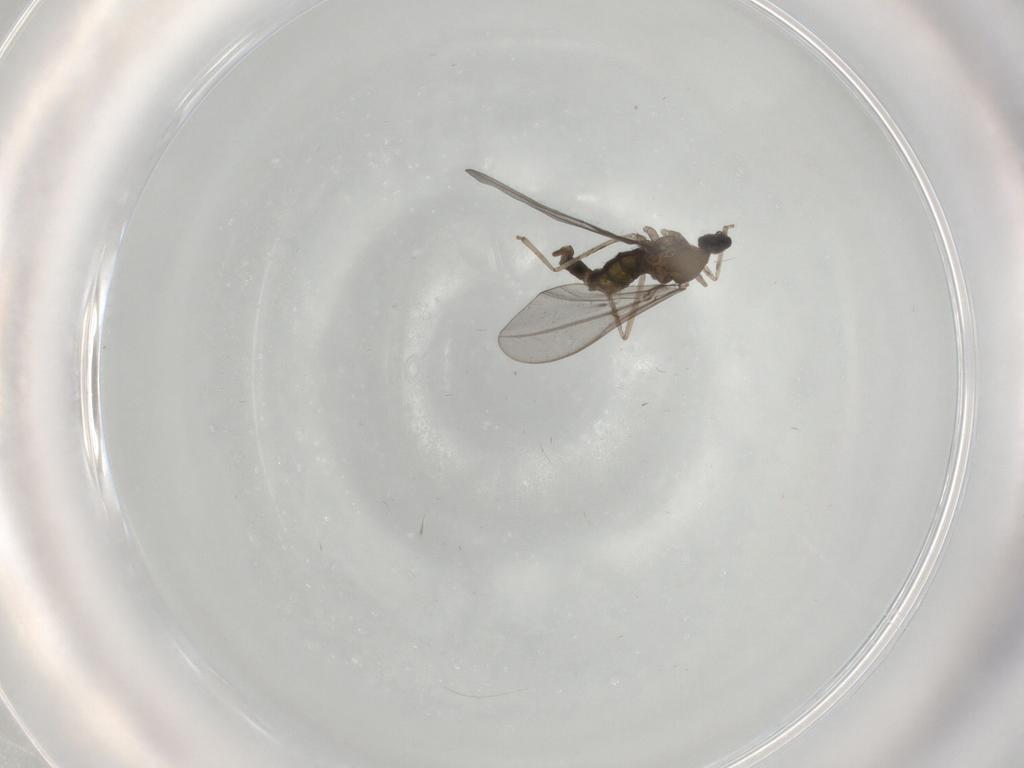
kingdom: Animalia
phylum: Arthropoda
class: Insecta
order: Diptera
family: Cecidomyiidae
